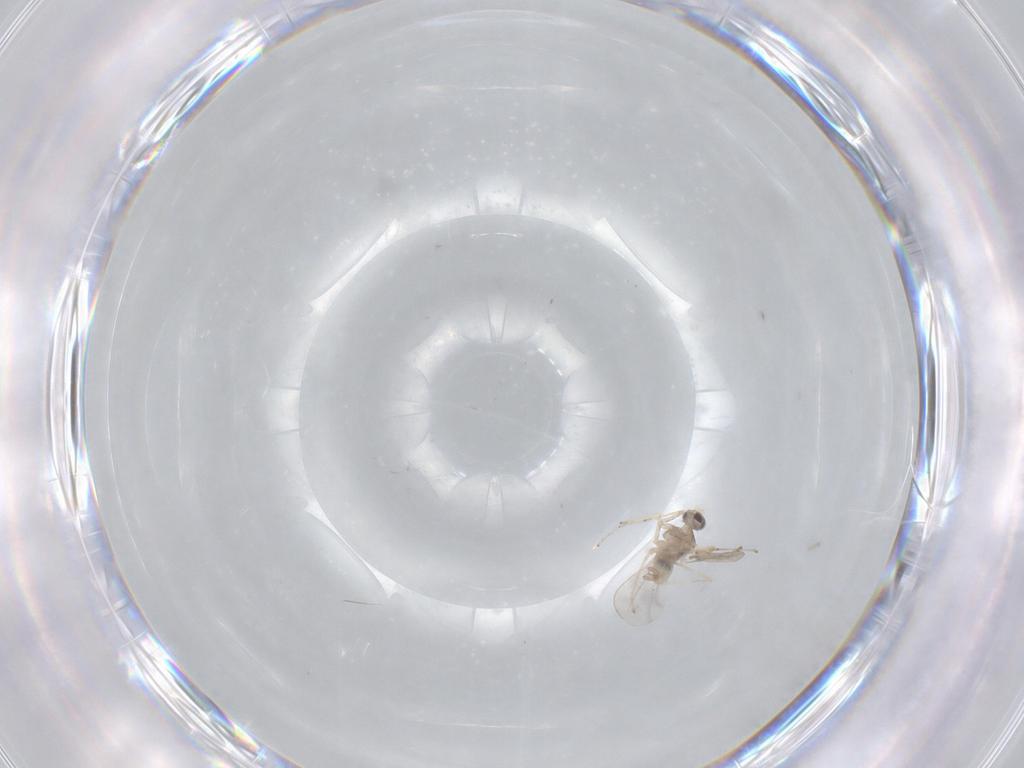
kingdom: Animalia
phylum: Arthropoda
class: Insecta
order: Diptera
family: Cecidomyiidae
